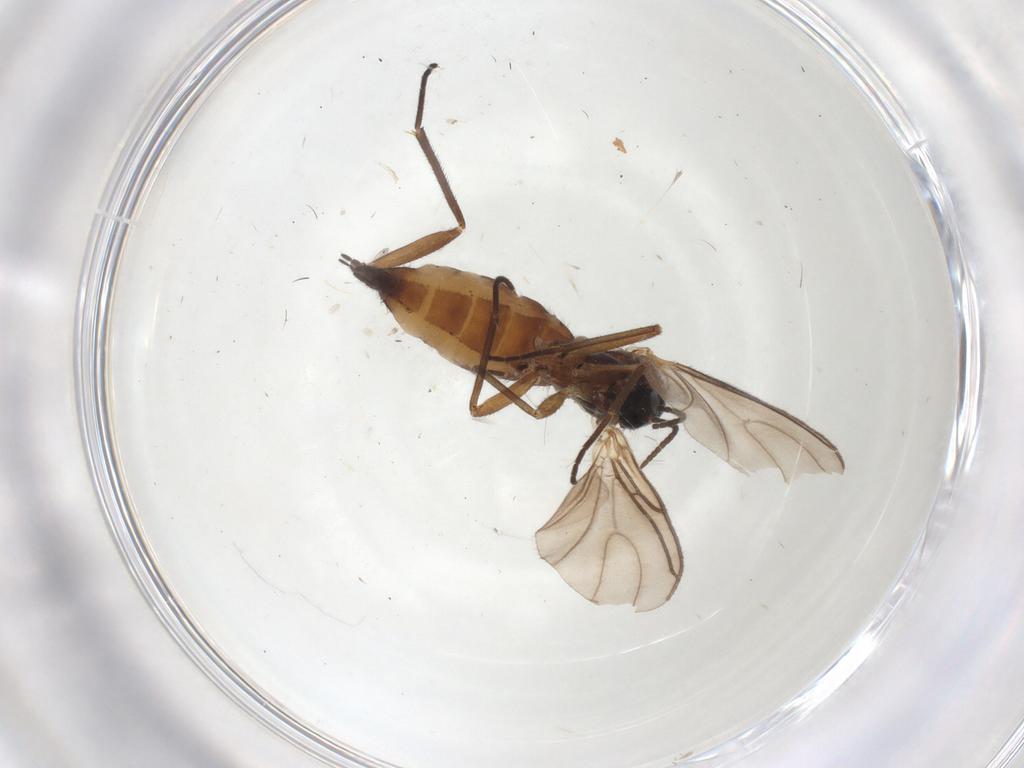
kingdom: Animalia
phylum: Arthropoda
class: Insecta
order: Diptera
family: Sciaridae
